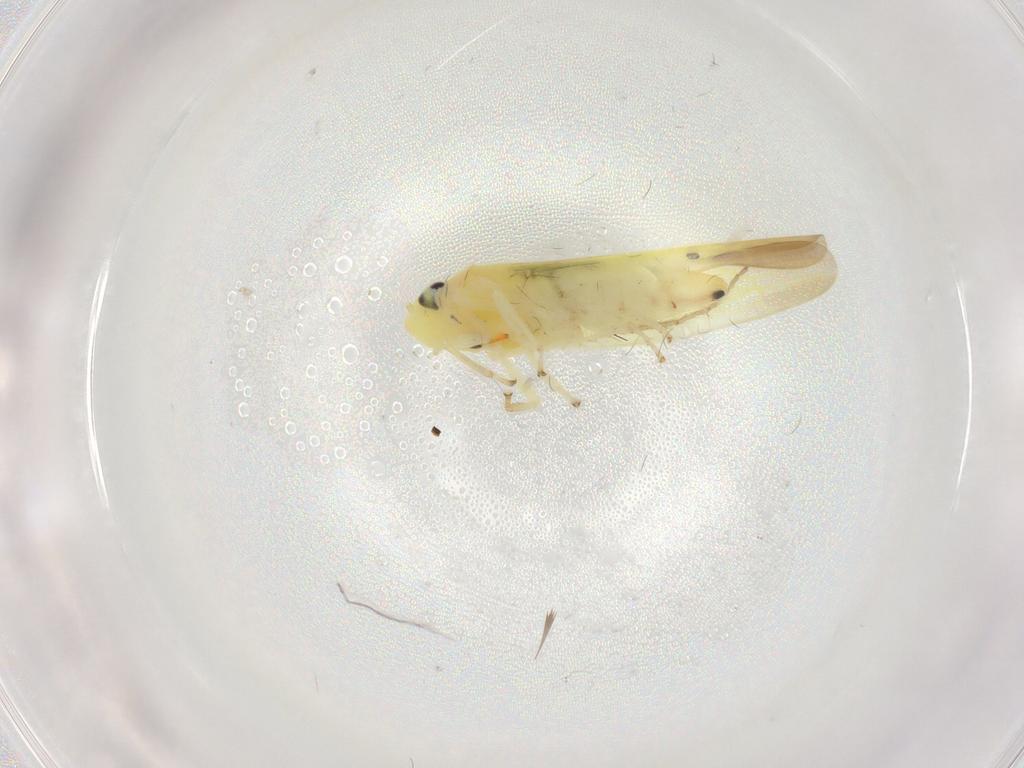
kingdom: Animalia
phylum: Arthropoda
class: Insecta
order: Hemiptera
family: Cicadellidae
